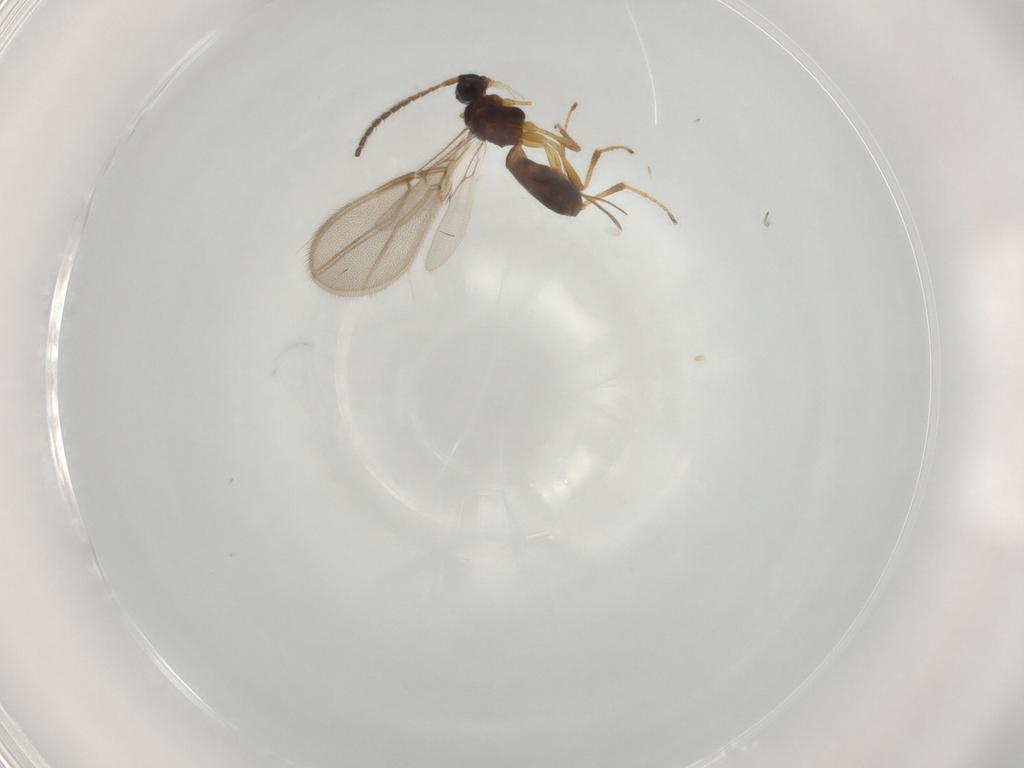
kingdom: Animalia
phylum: Arthropoda
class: Insecta
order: Hymenoptera
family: Braconidae
